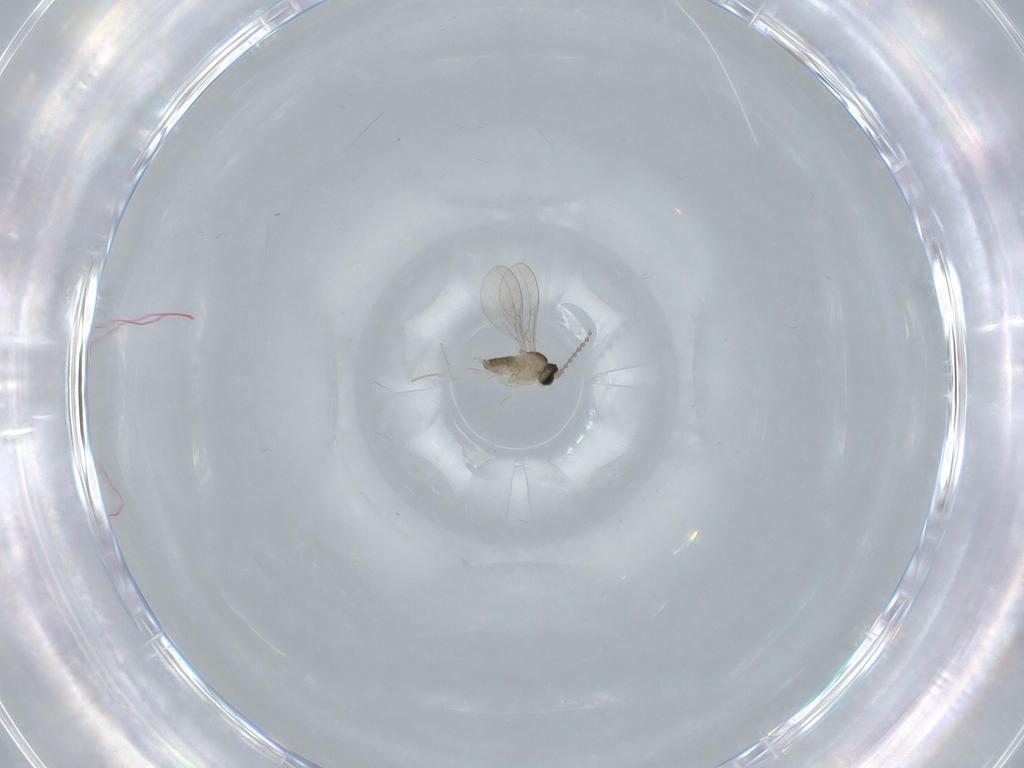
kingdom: Animalia
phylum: Arthropoda
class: Insecta
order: Diptera
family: Cecidomyiidae
